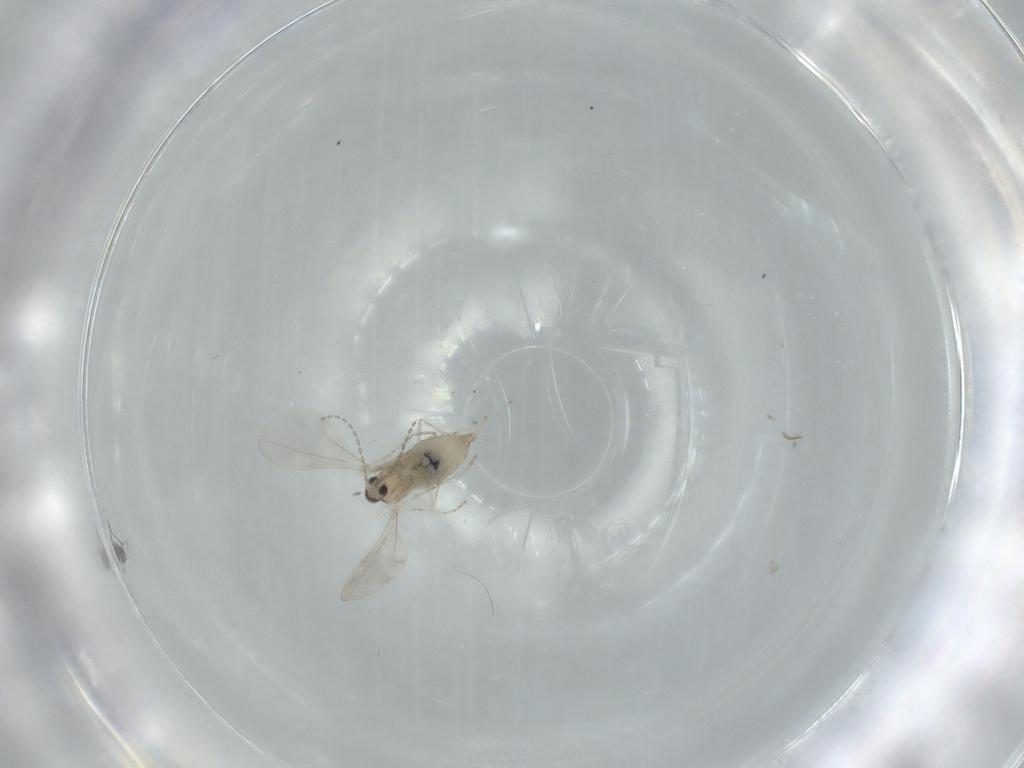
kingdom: Animalia
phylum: Arthropoda
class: Insecta
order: Diptera
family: Cecidomyiidae
